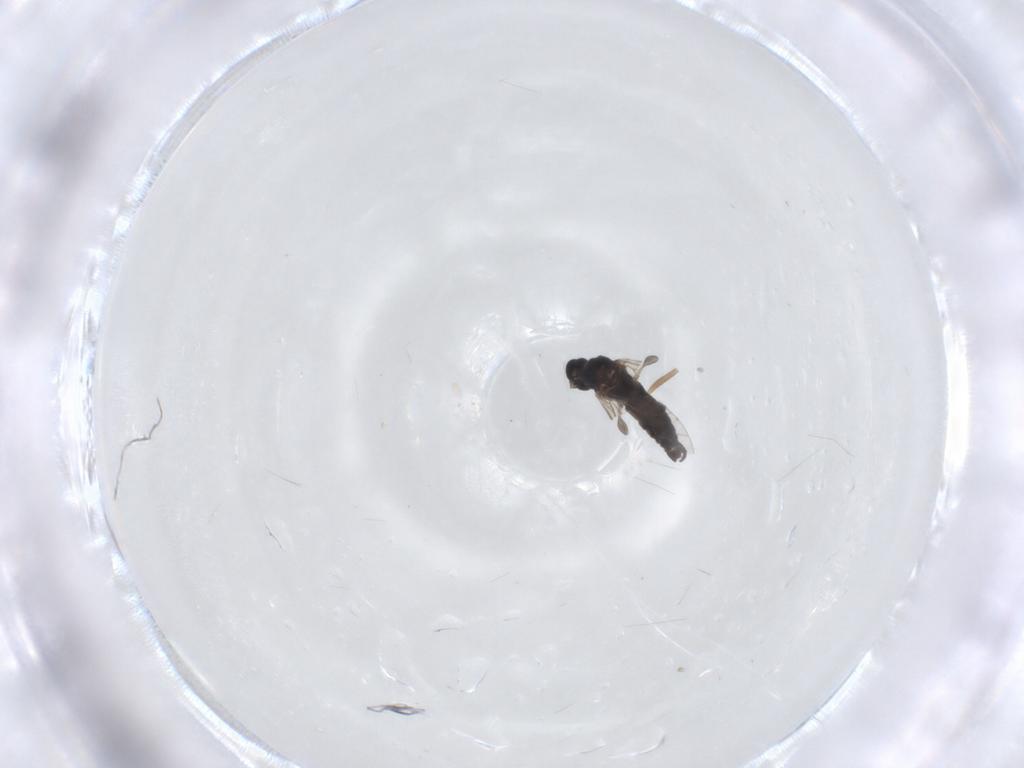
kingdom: Animalia
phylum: Arthropoda
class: Insecta
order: Diptera
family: Sciaridae
